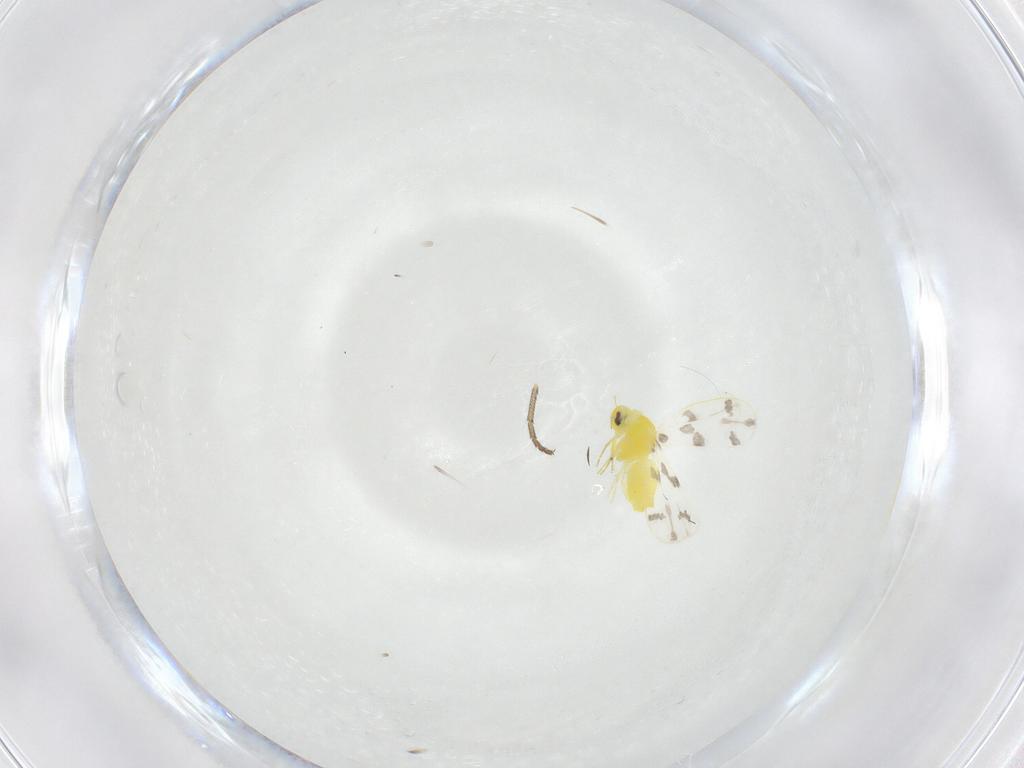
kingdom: Animalia
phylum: Arthropoda
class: Insecta
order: Hemiptera
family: Aleyrodidae
